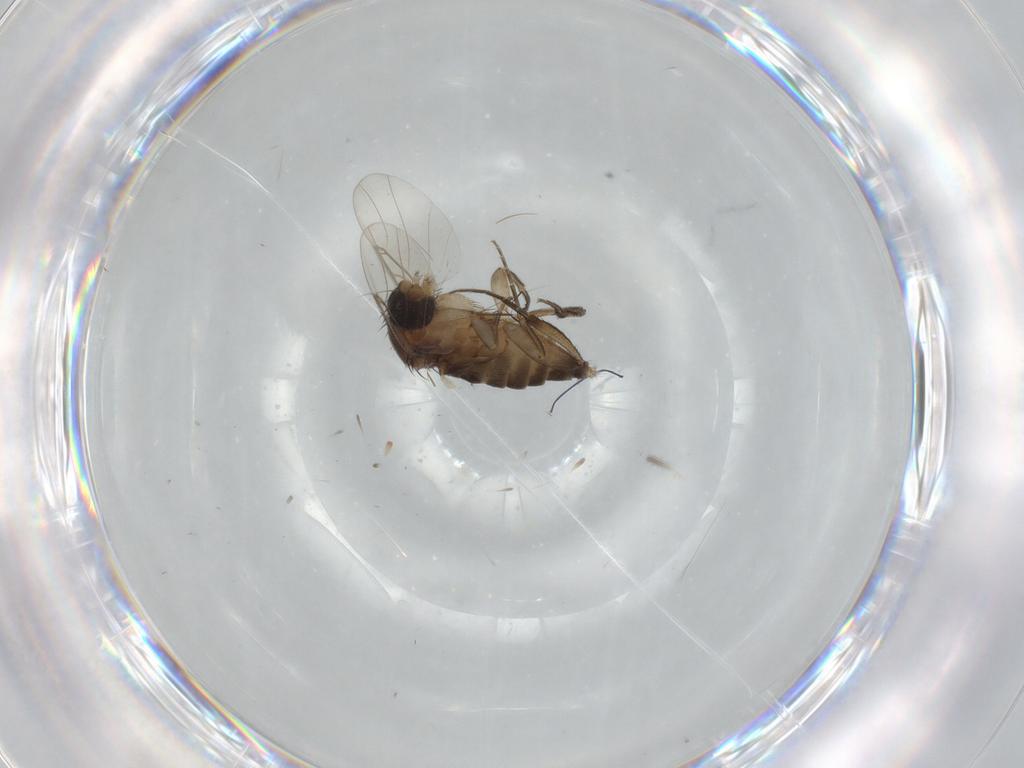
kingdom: Animalia
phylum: Arthropoda
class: Insecta
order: Diptera
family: Phoridae
